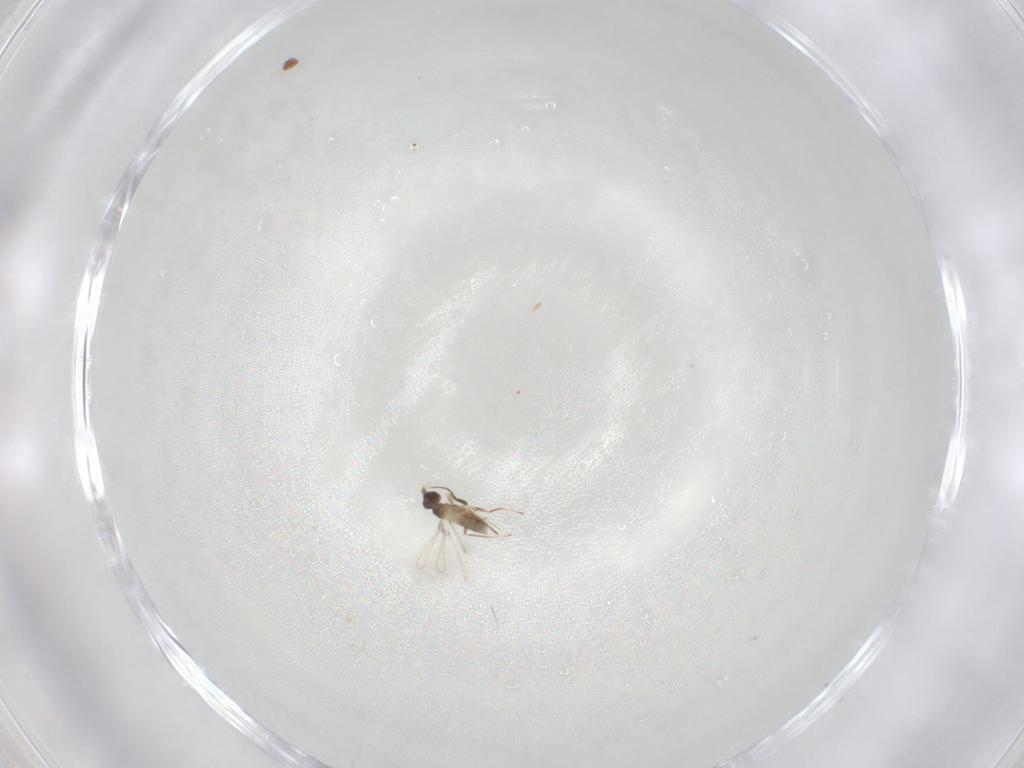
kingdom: Animalia
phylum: Arthropoda
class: Insecta
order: Hymenoptera
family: Mymaridae
